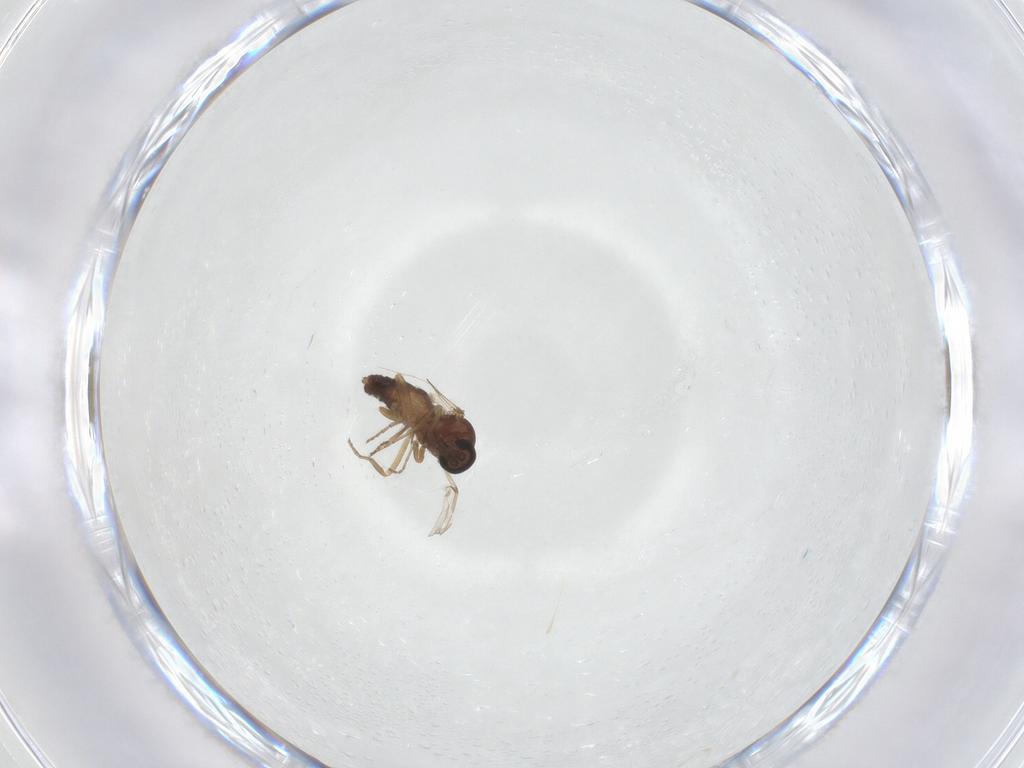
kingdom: Animalia
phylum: Arthropoda
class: Insecta
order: Diptera
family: Ceratopogonidae
